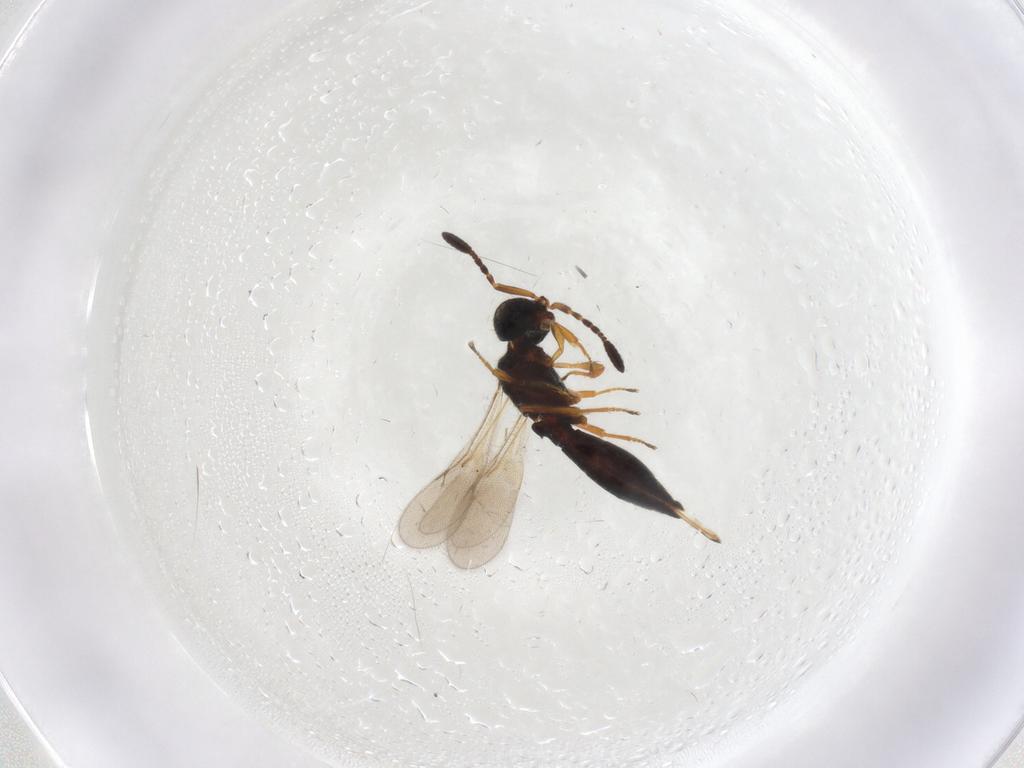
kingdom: Animalia
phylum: Arthropoda
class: Insecta
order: Hymenoptera
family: Scelionidae
